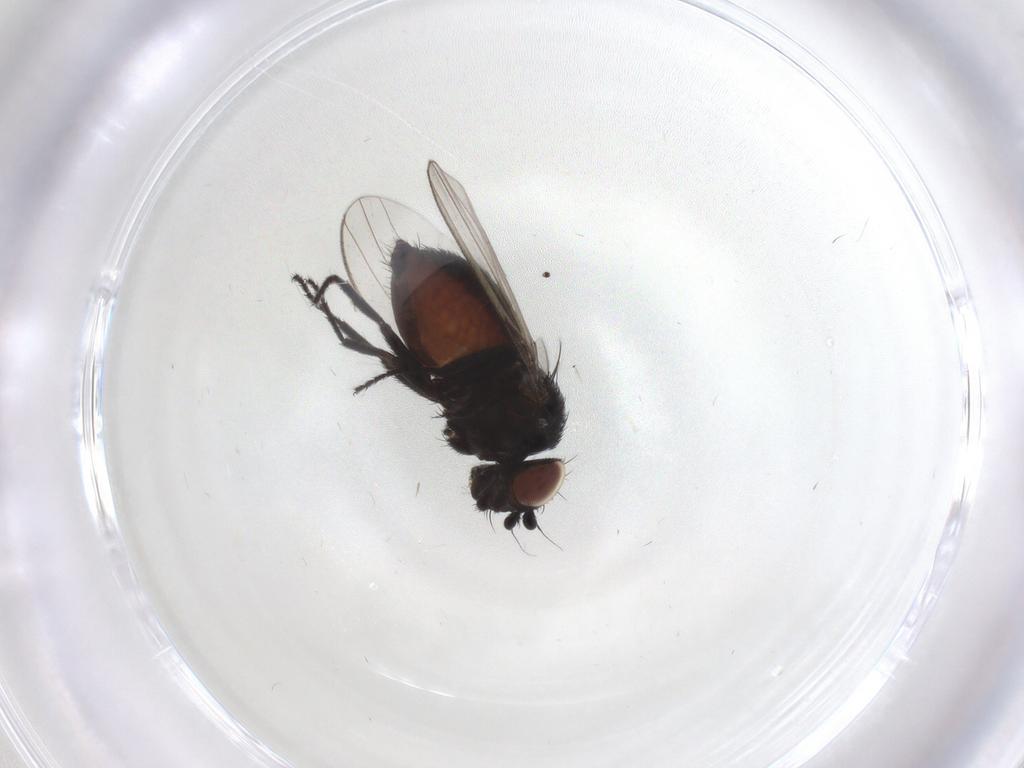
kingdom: Animalia
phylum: Arthropoda
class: Insecta
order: Diptera
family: Milichiidae
